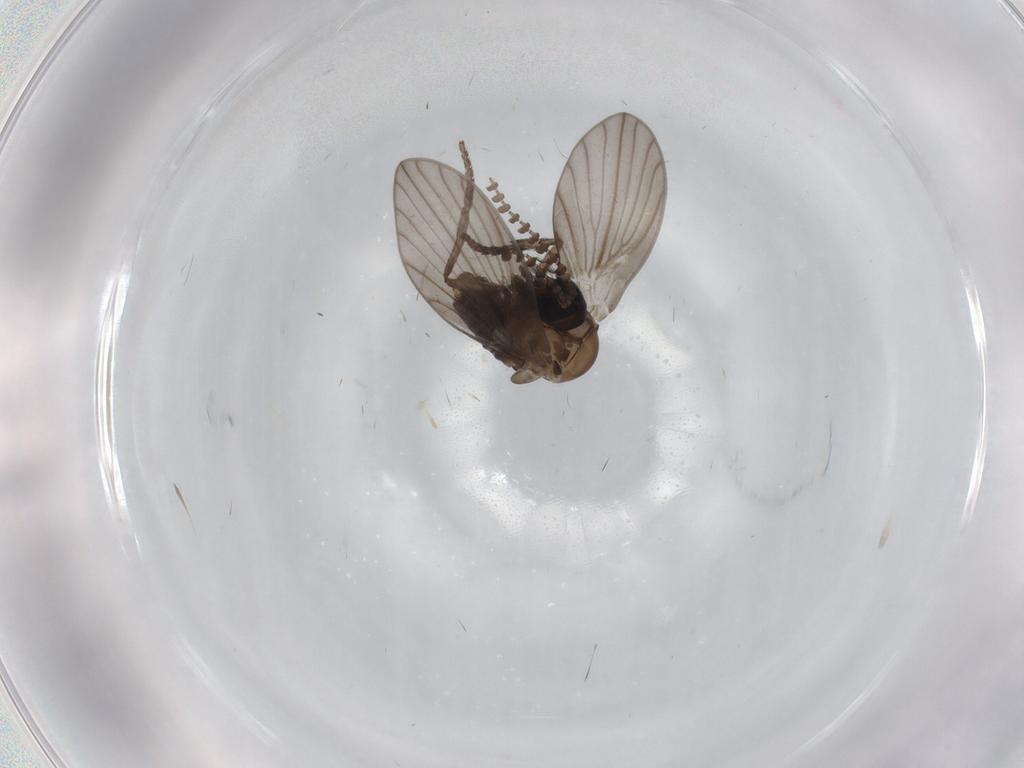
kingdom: Animalia
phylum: Arthropoda
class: Insecta
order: Diptera
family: Psychodidae
